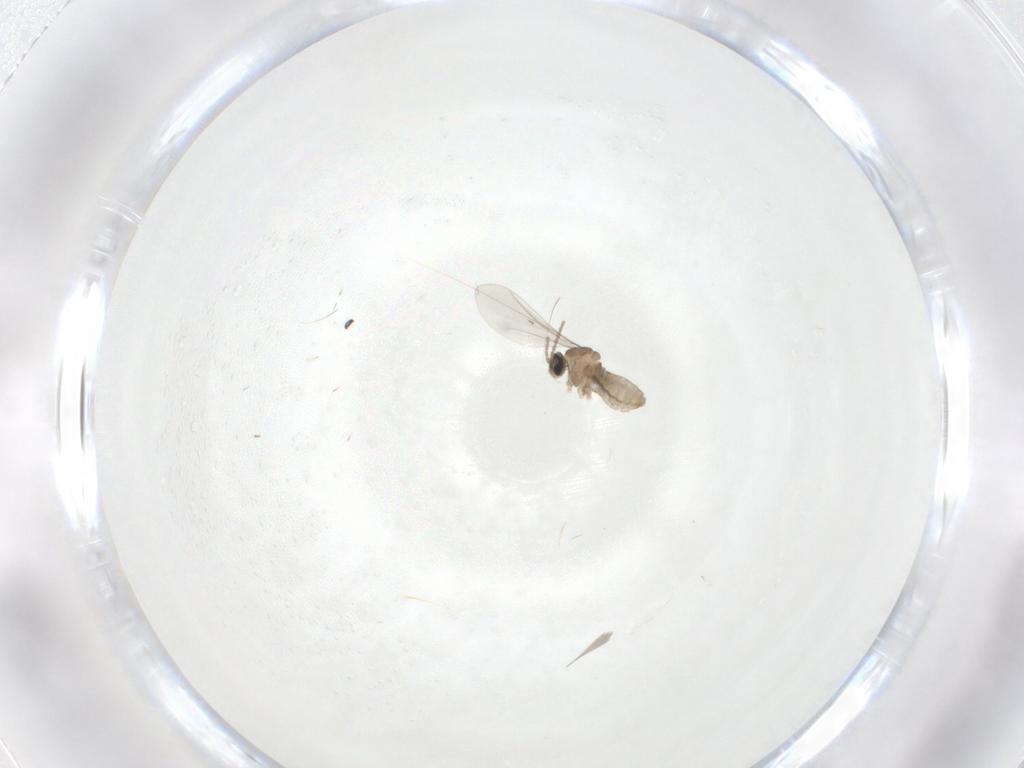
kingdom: Animalia
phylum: Arthropoda
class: Insecta
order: Diptera
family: Cecidomyiidae
